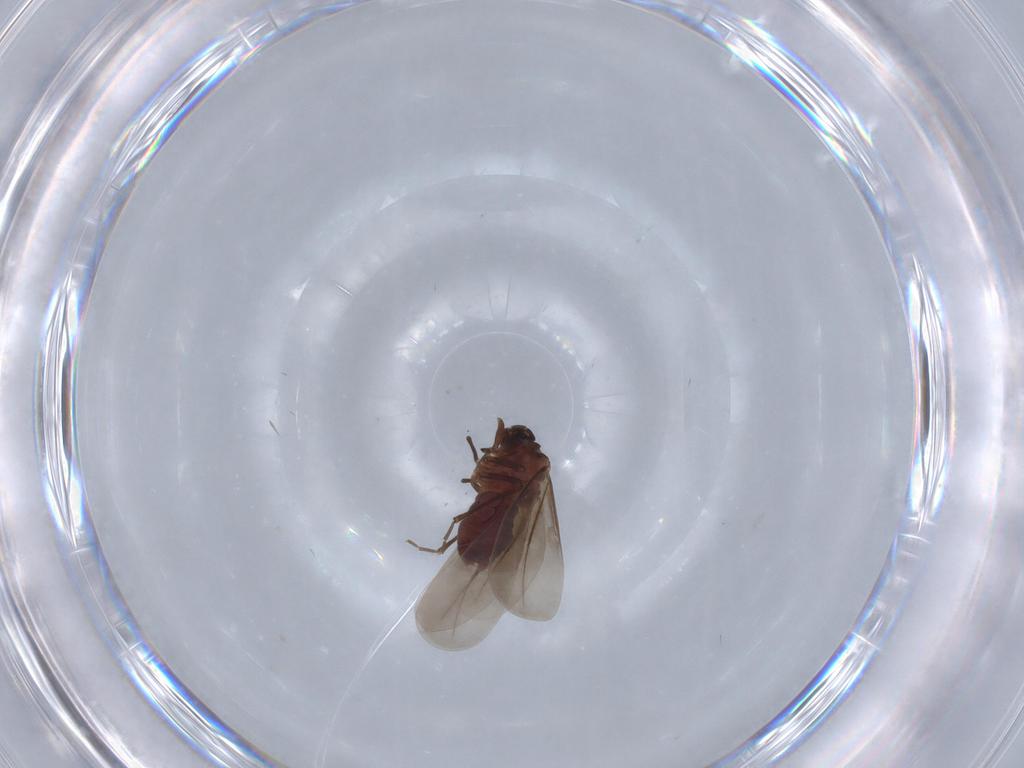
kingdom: Animalia
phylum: Arthropoda
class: Insecta
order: Hemiptera
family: Aleyrodidae
